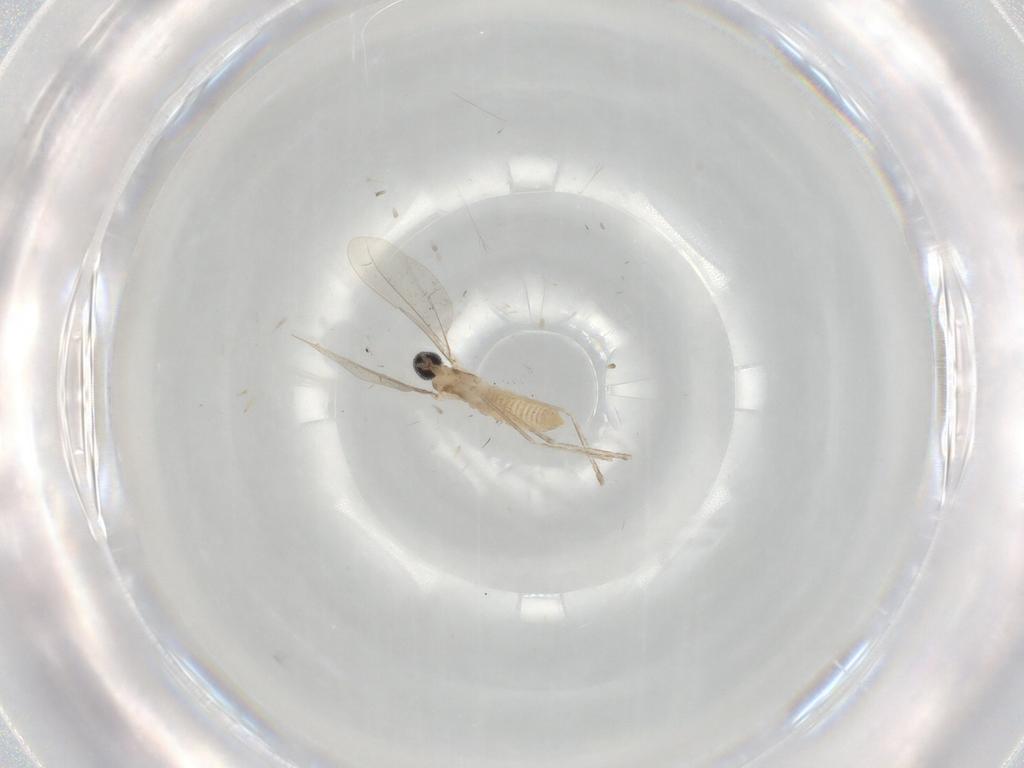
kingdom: Animalia
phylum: Arthropoda
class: Insecta
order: Diptera
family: Cecidomyiidae
